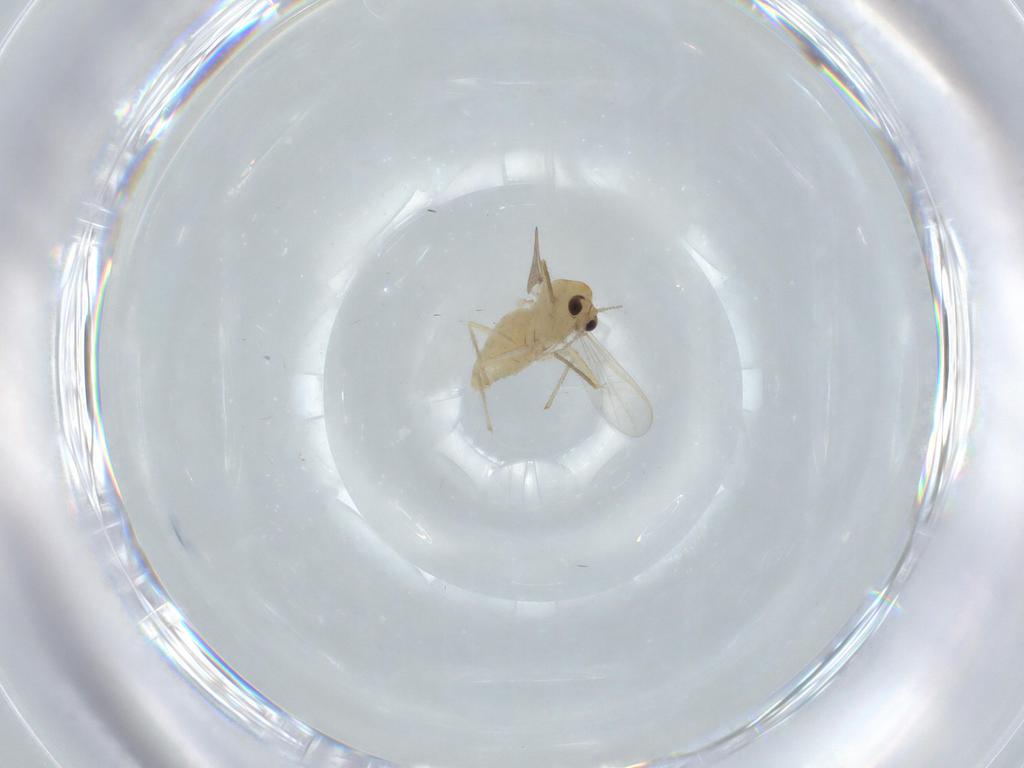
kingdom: Animalia
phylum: Arthropoda
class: Insecta
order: Diptera
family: Chironomidae
